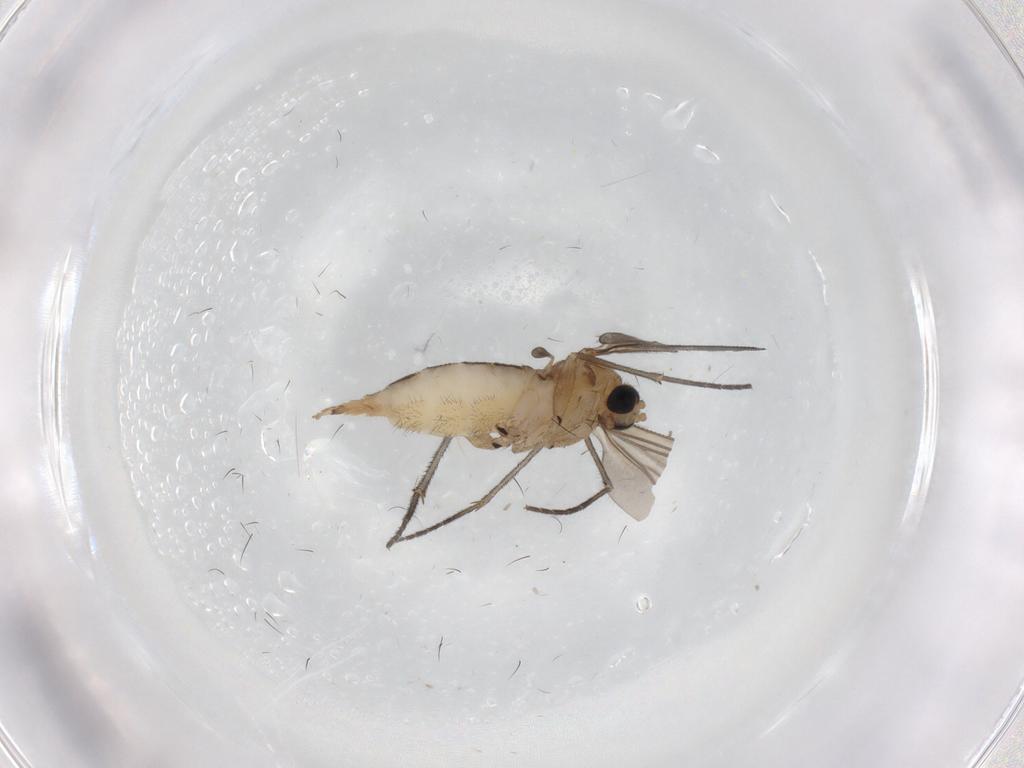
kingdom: Animalia
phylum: Arthropoda
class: Insecta
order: Diptera
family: Sciaridae
